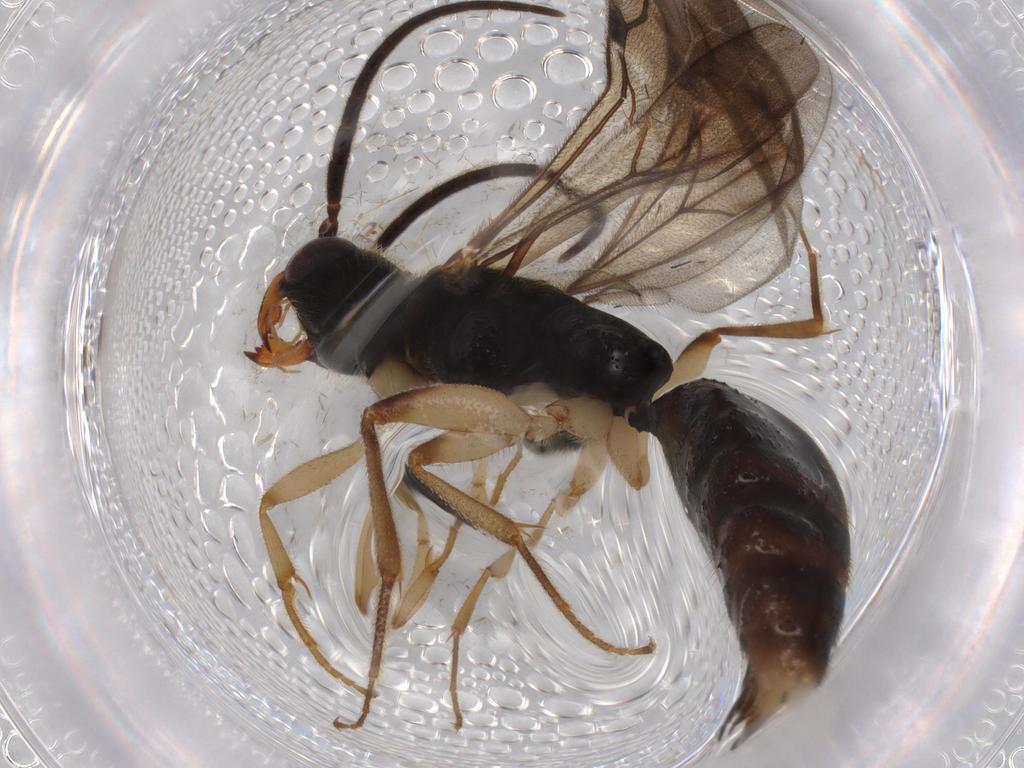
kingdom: Animalia
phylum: Arthropoda
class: Insecta
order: Hymenoptera
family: Bethylidae
